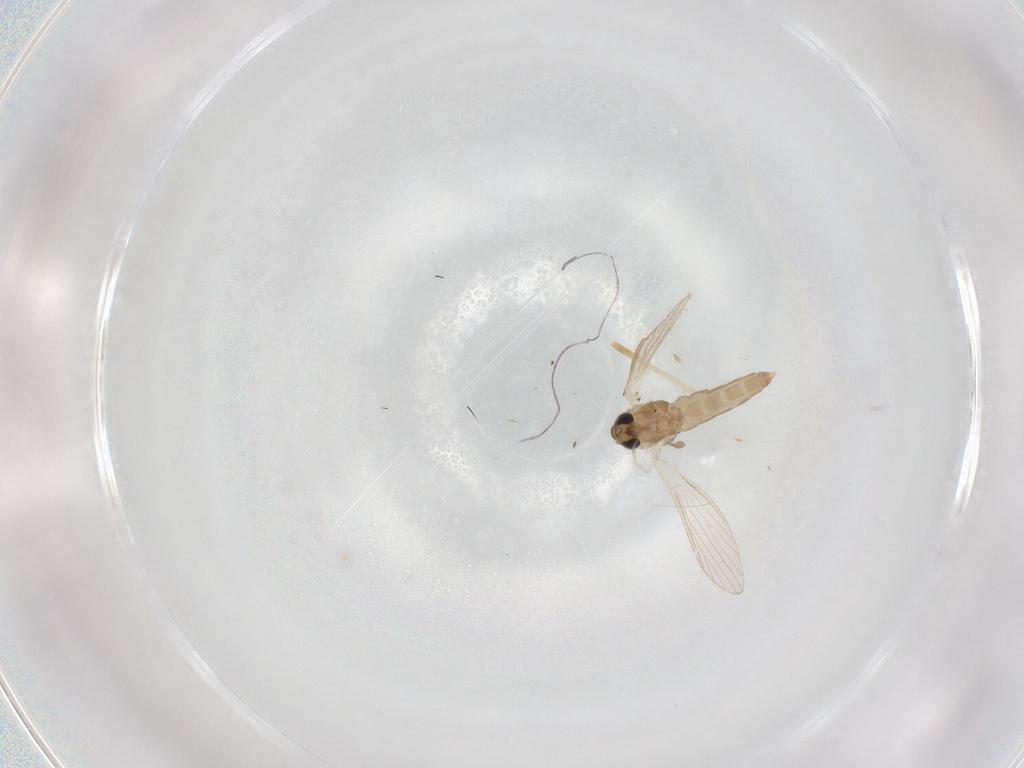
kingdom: Animalia
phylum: Arthropoda
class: Insecta
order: Diptera
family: Psychodidae
